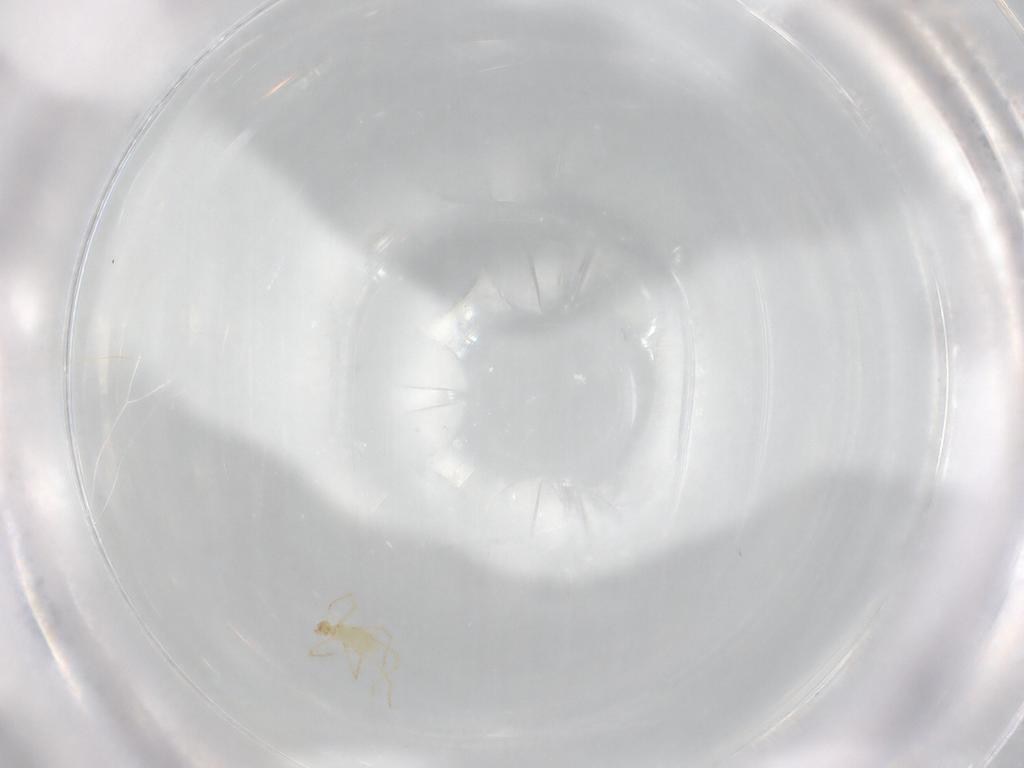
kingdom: Animalia
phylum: Arthropoda
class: Arachnida
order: Trombidiformes
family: Erythraeidae
